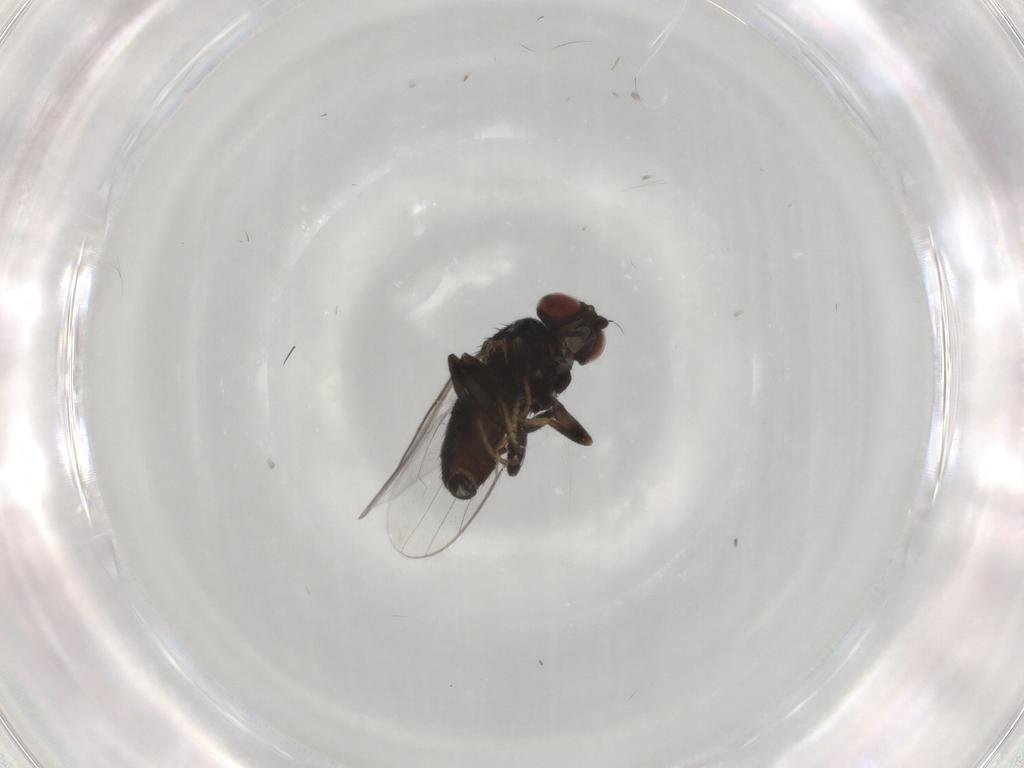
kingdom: Animalia
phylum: Arthropoda
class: Insecta
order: Diptera
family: Chloropidae
